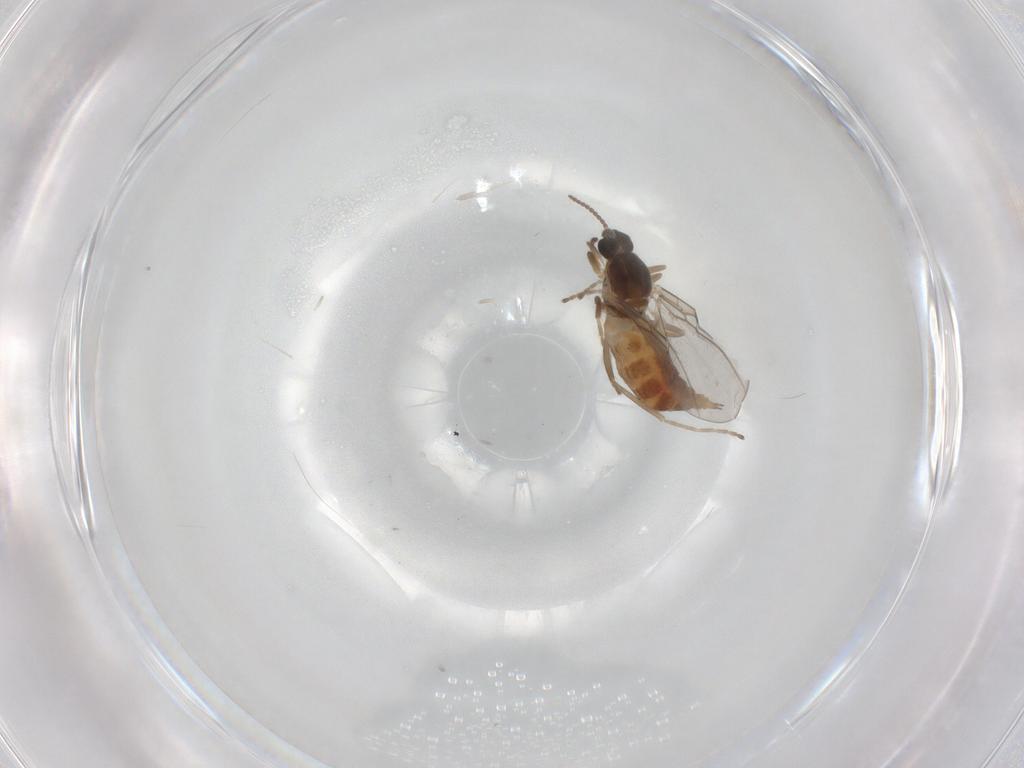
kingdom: Animalia
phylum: Arthropoda
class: Insecta
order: Diptera
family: Cecidomyiidae
